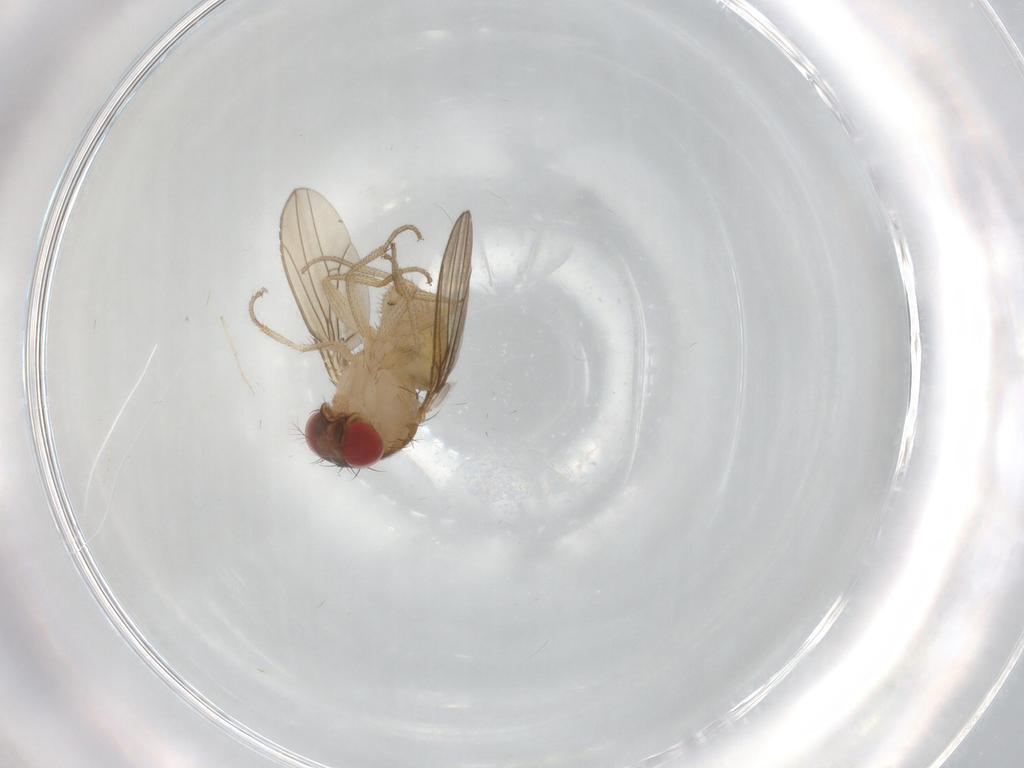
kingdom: Animalia
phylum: Arthropoda
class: Insecta
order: Diptera
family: Drosophilidae
